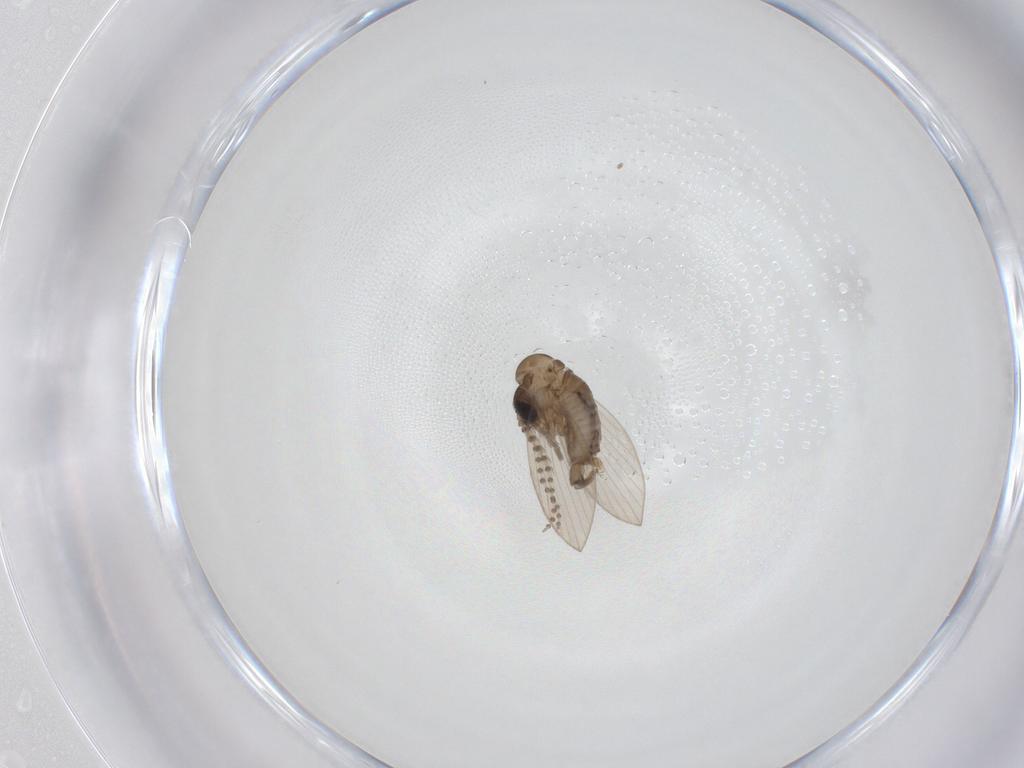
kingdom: Animalia
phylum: Arthropoda
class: Insecta
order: Diptera
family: Psychodidae
